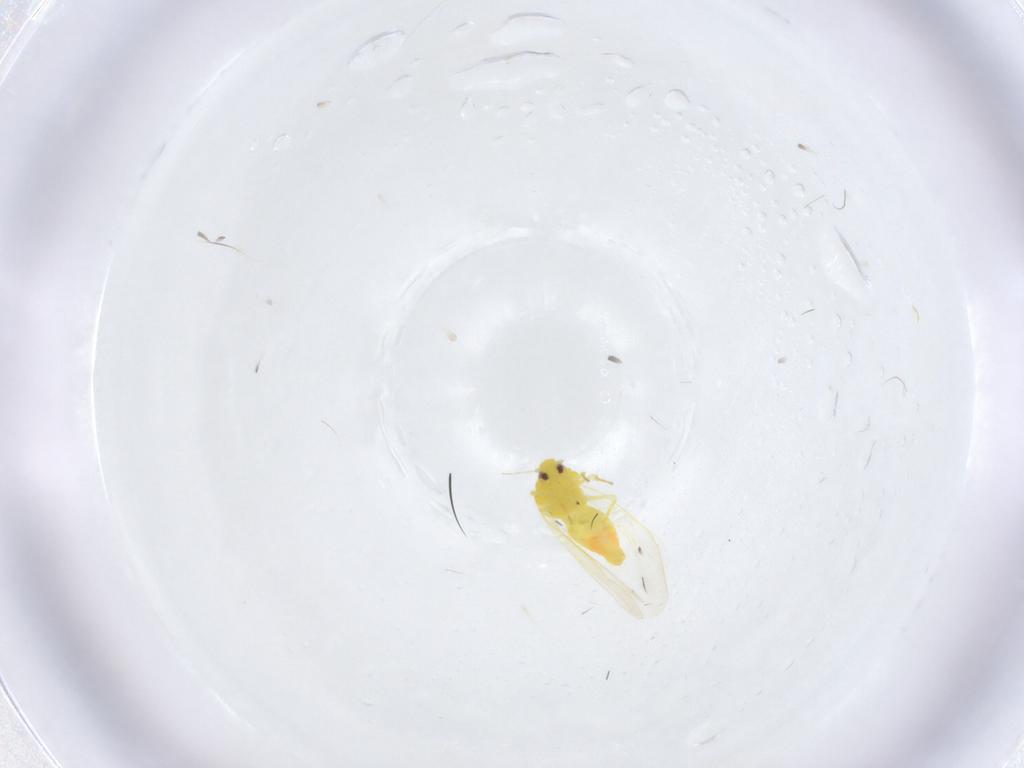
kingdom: Animalia
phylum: Arthropoda
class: Insecta
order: Hemiptera
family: Aleyrodidae
